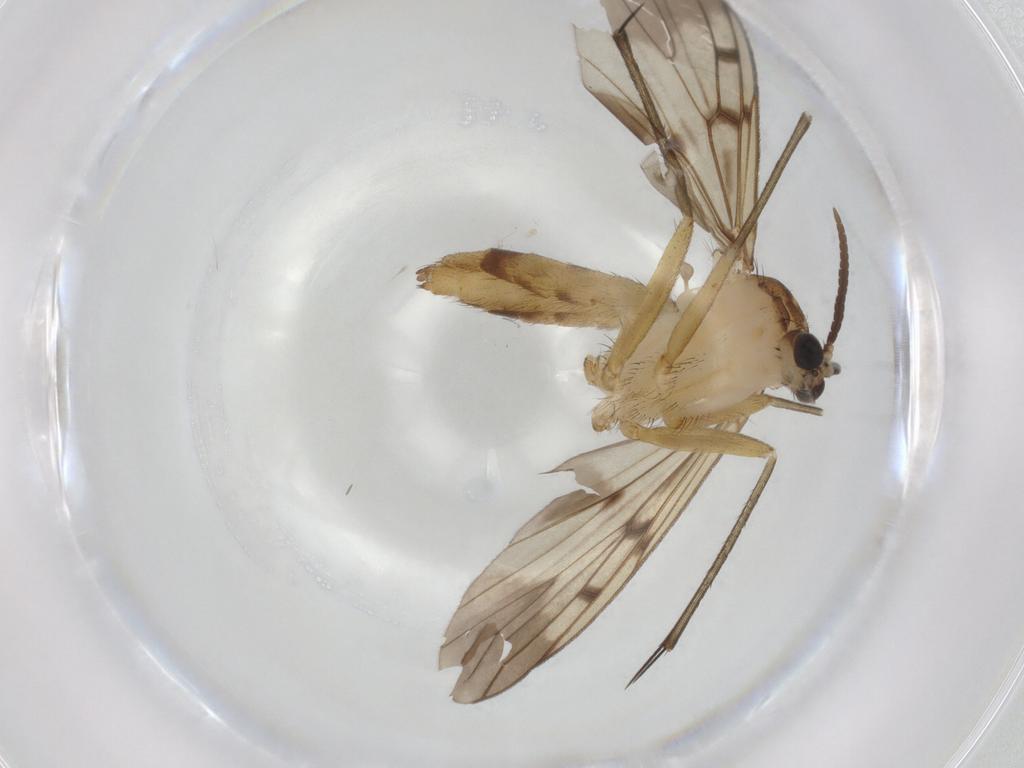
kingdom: Animalia
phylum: Arthropoda
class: Insecta
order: Diptera
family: Mycetophilidae
